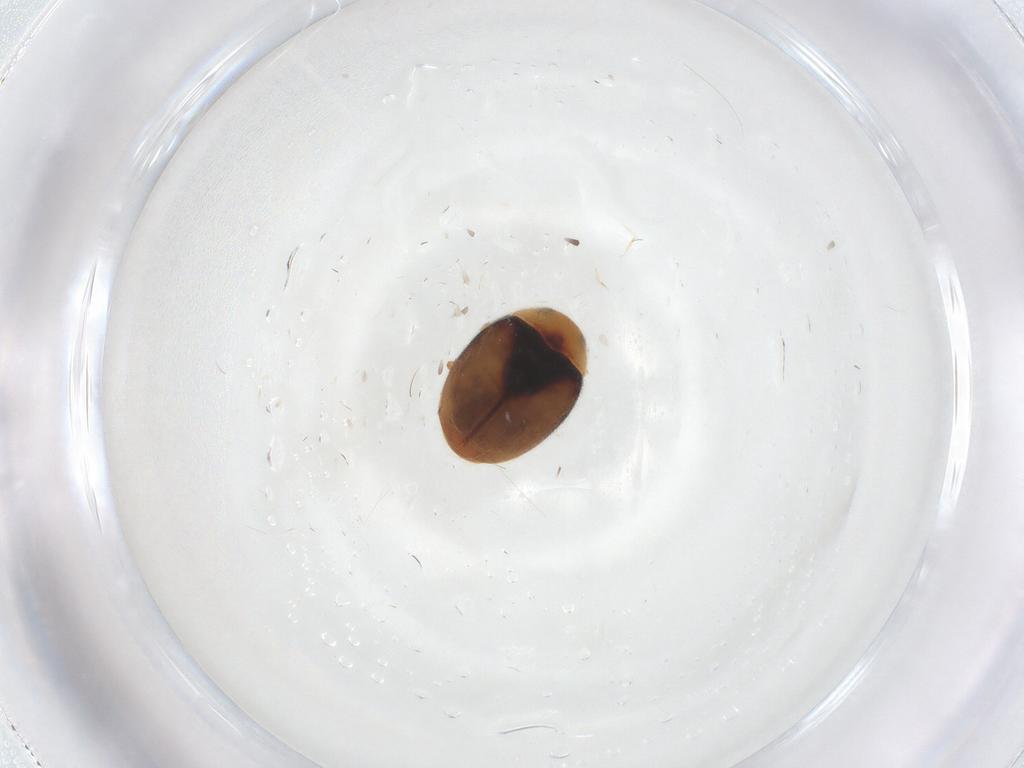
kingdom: Animalia
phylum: Arthropoda
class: Insecta
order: Coleoptera
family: Coccinellidae
